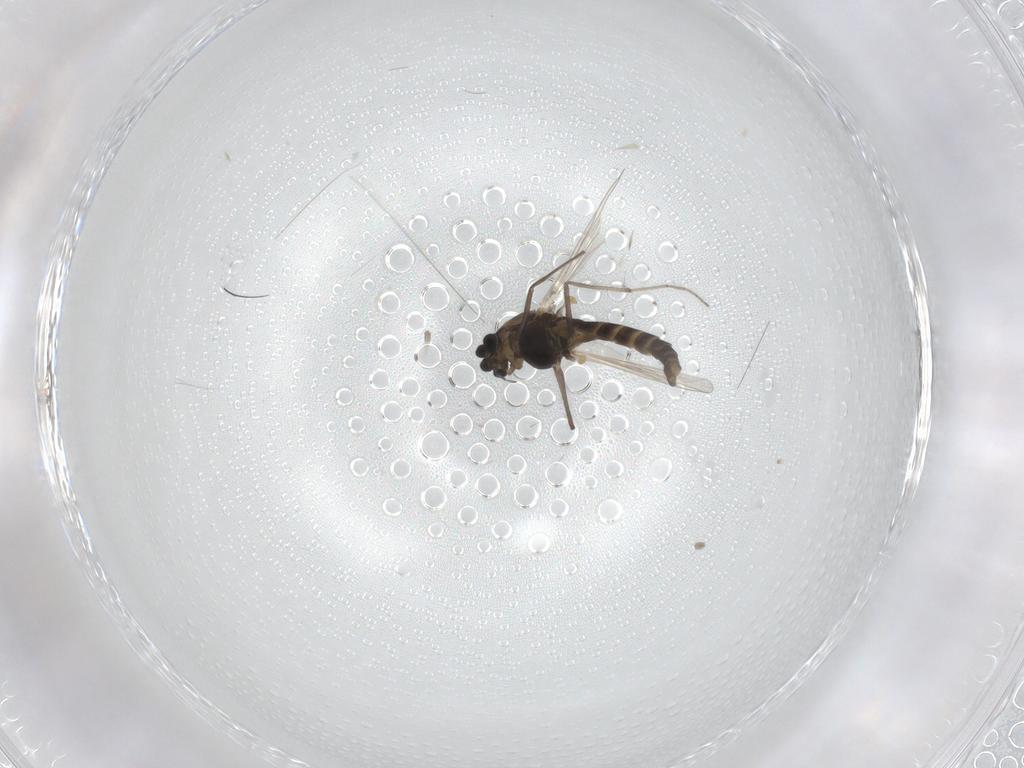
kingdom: Animalia
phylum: Arthropoda
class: Insecta
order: Diptera
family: Chironomidae
